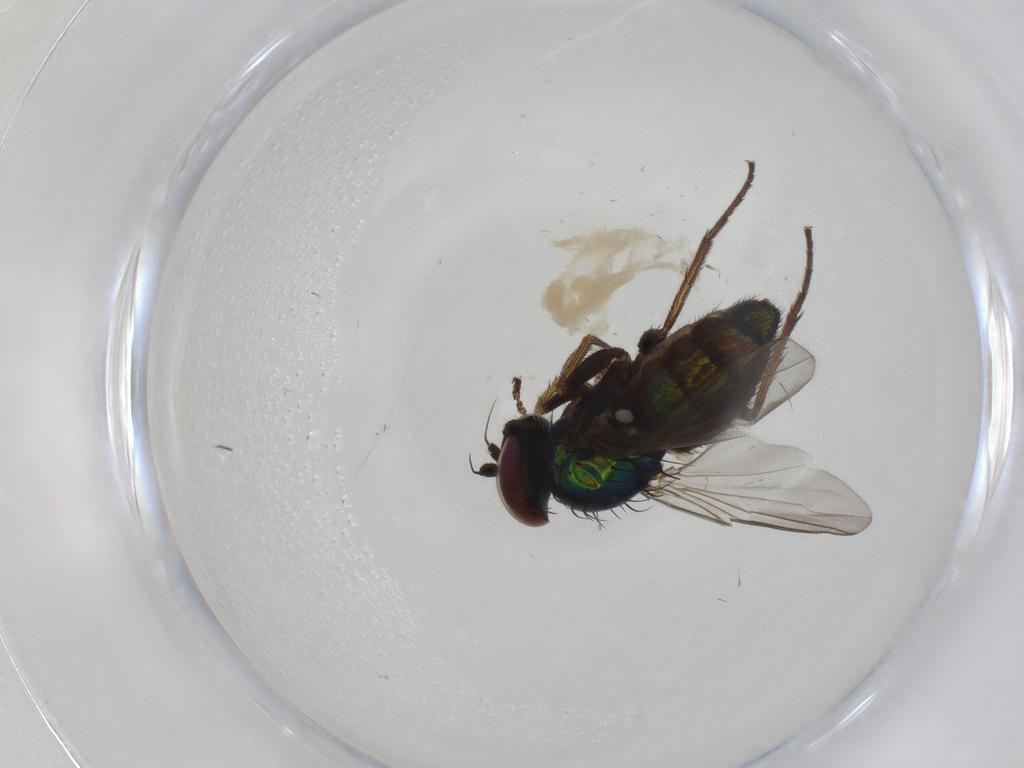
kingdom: Animalia
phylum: Arthropoda
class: Insecta
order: Diptera
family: Dolichopodidae
